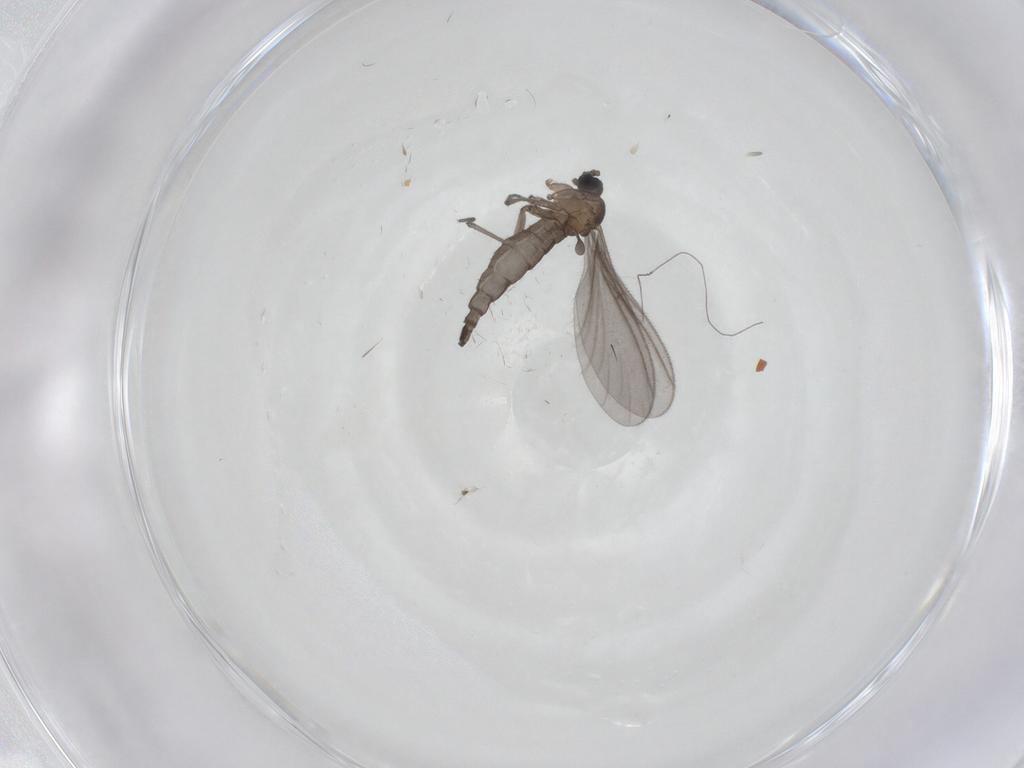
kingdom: Animalia
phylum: Arthropoda
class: Insecta
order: Diptera
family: Sciaridae
